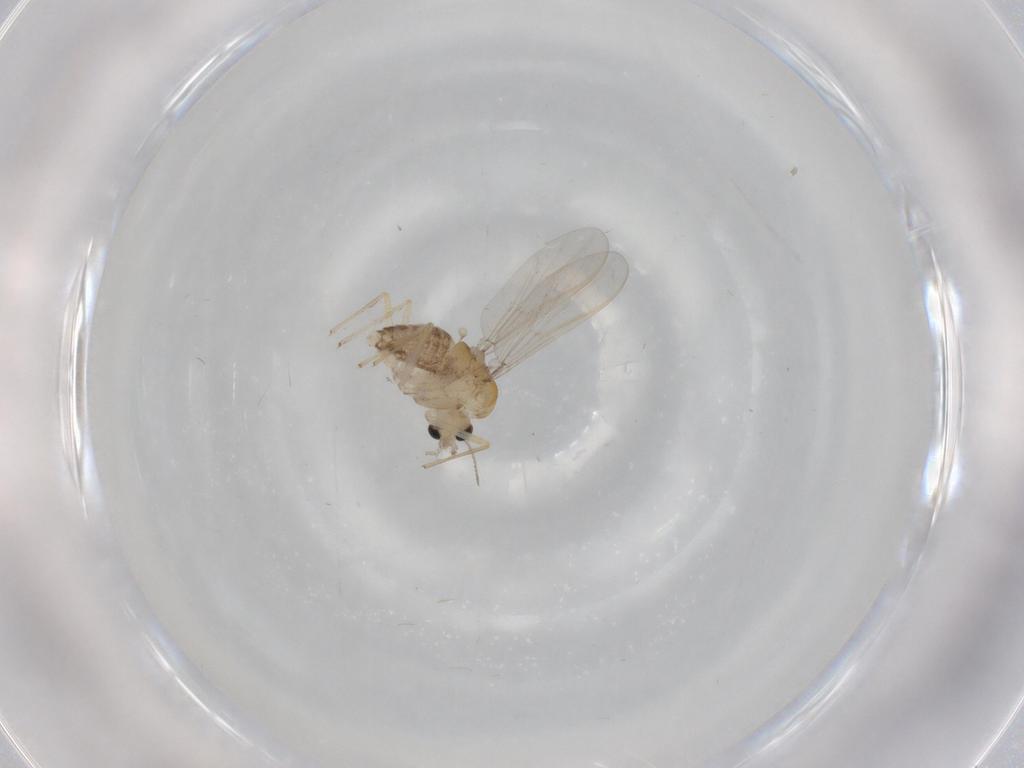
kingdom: Animalia
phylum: Arthropoda
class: Insecta
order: Diptera
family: Chironomidae
